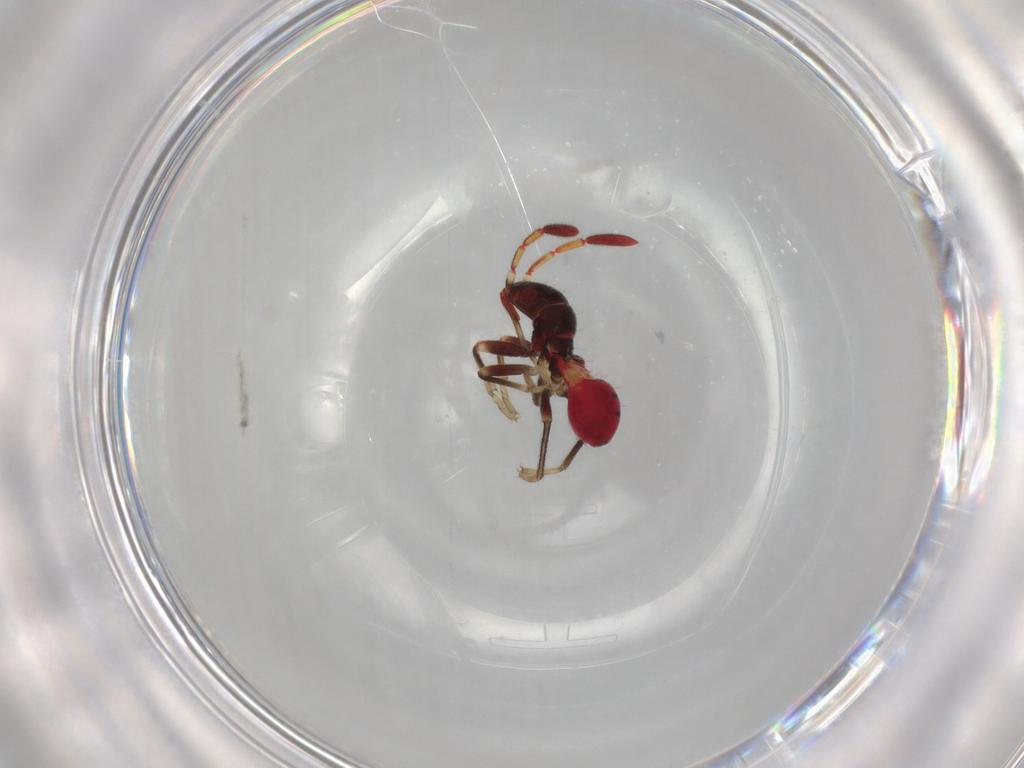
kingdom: Animalia
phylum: Arthropoda
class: Insecta
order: Hemiptera
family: Rhyparochromidae
